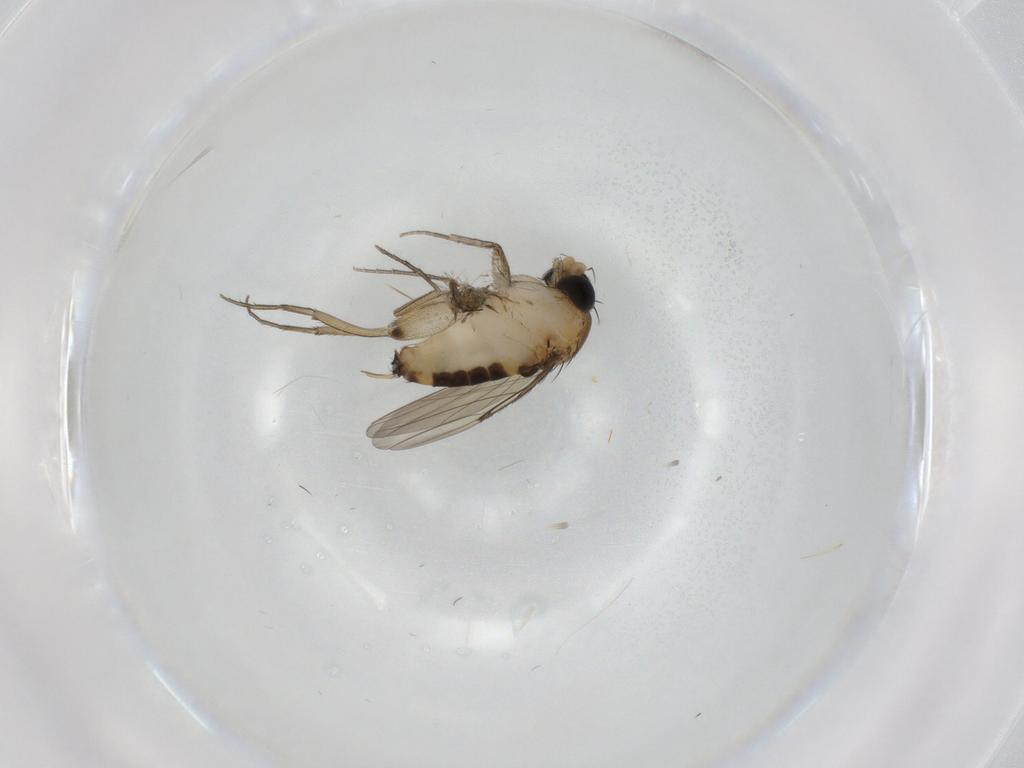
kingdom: Animalia
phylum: Arthropoda
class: Insecta
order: Diptera
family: Phoridae
